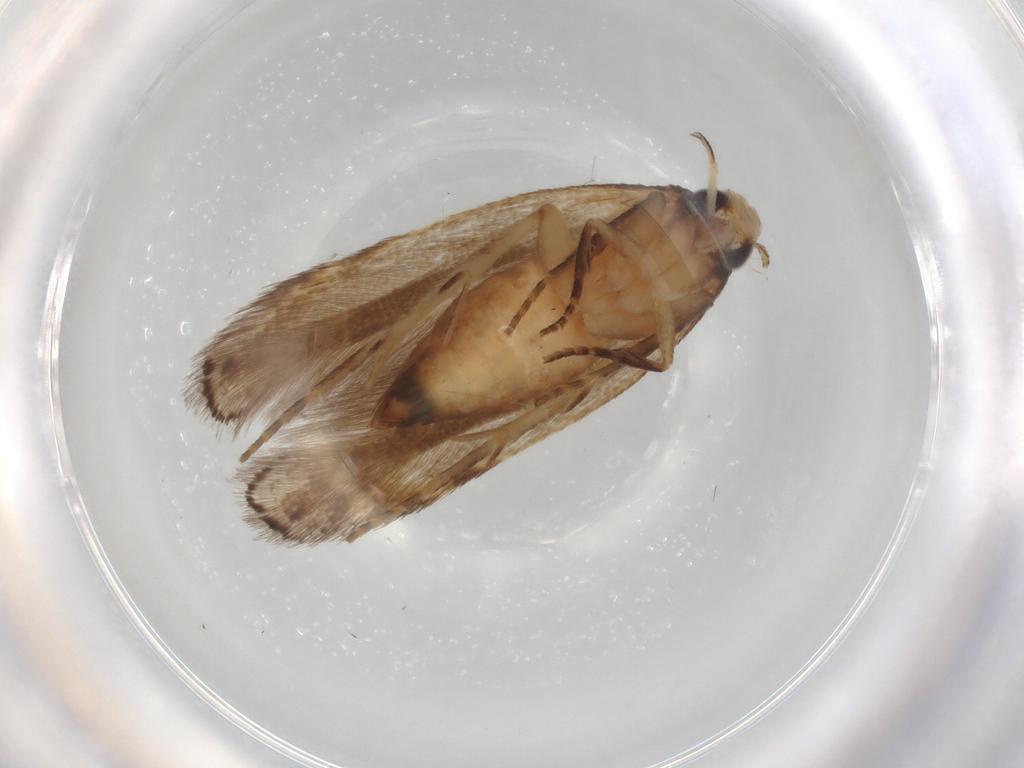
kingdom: Animalia
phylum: Arthropoda
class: Insecta
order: Lepidoptera
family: Gelechiidae
